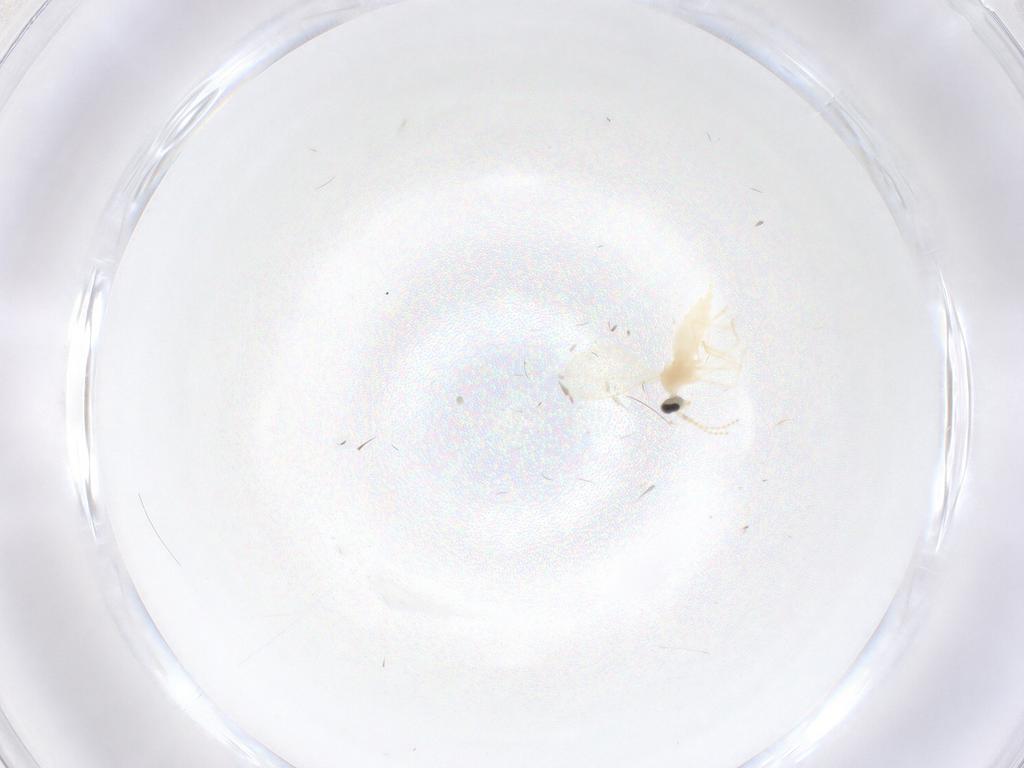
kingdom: Animalia
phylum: Arthropoda
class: Insecta
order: Diptera
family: Cecidomyiidae
